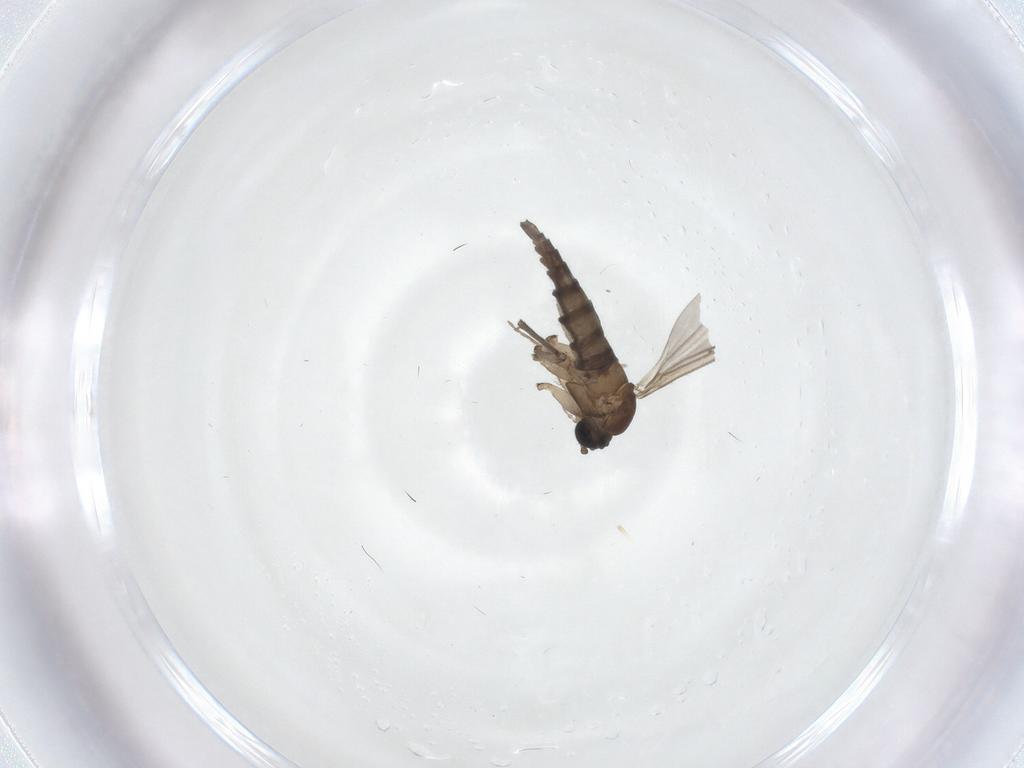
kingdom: Animalia
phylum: Arthropoda
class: Insecta
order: Diptera
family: Sciaridae
